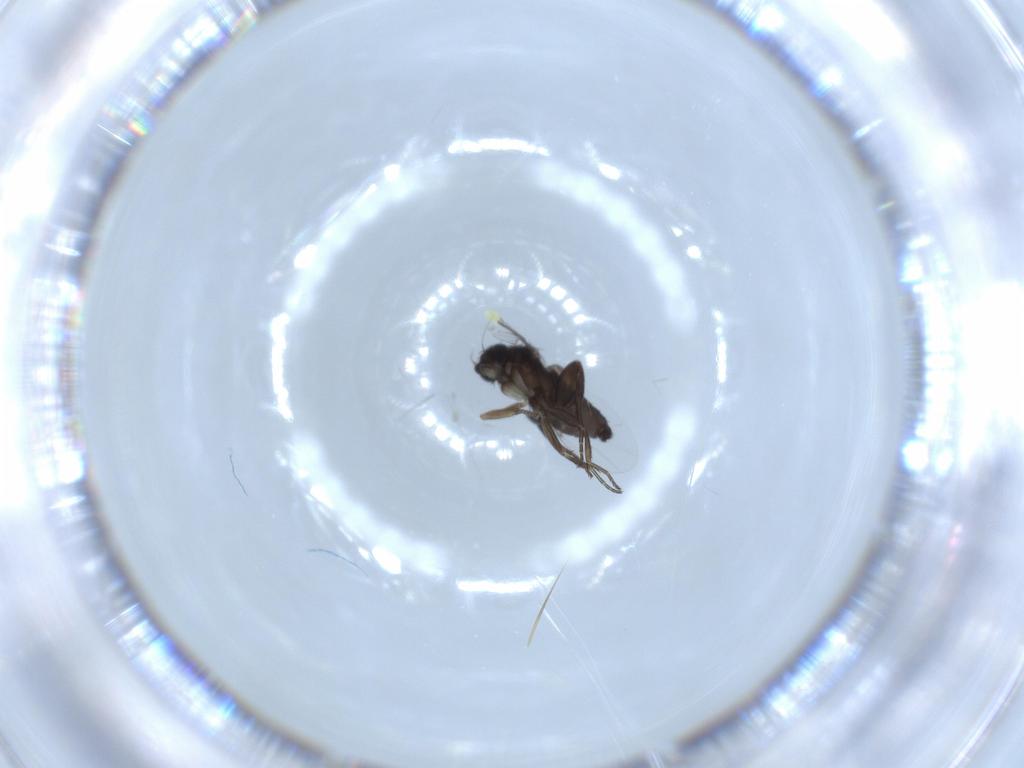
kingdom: Animalia
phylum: Arthropoda
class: Insecta
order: Diptera
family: Phoridae
